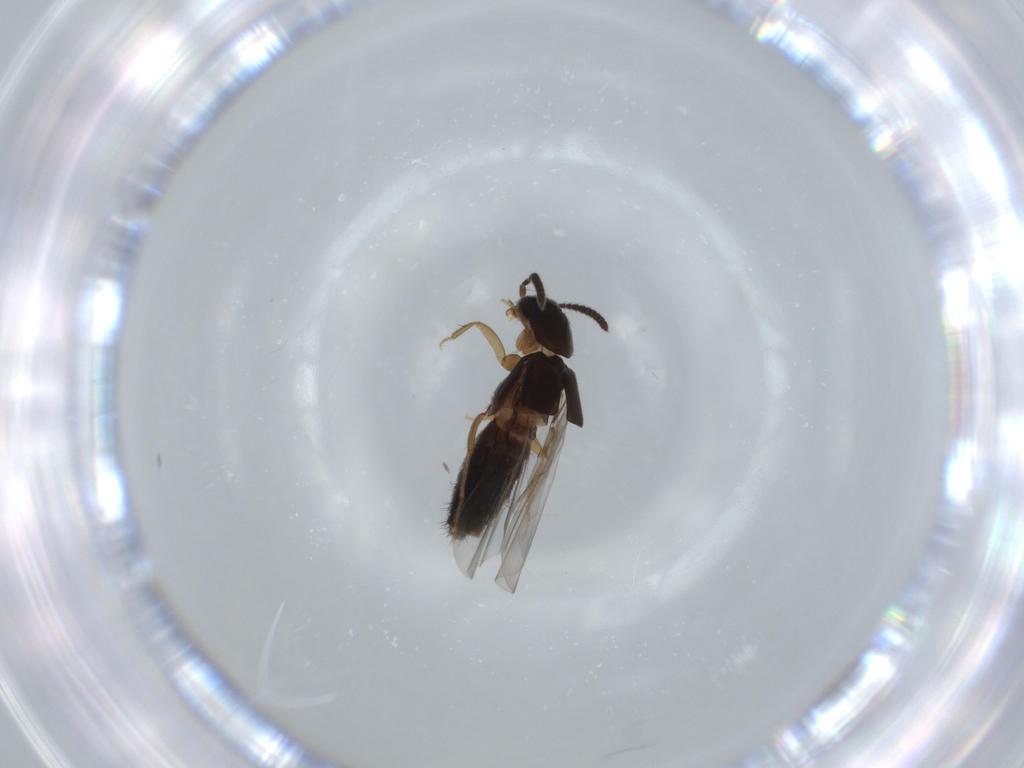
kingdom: Animalia
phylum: Arthropoda
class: Insecta
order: Coleoptera
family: Staphylinidae
